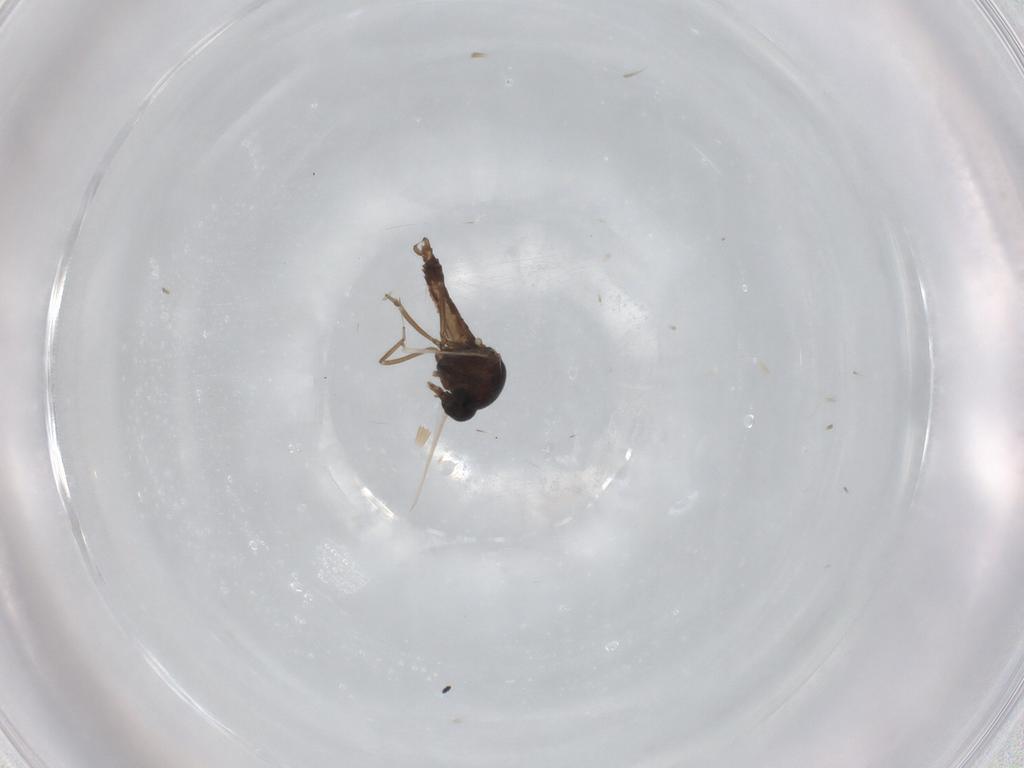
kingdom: Animalia
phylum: Arthropoda
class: Insecta
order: Diptera
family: Ceratopogonidae
